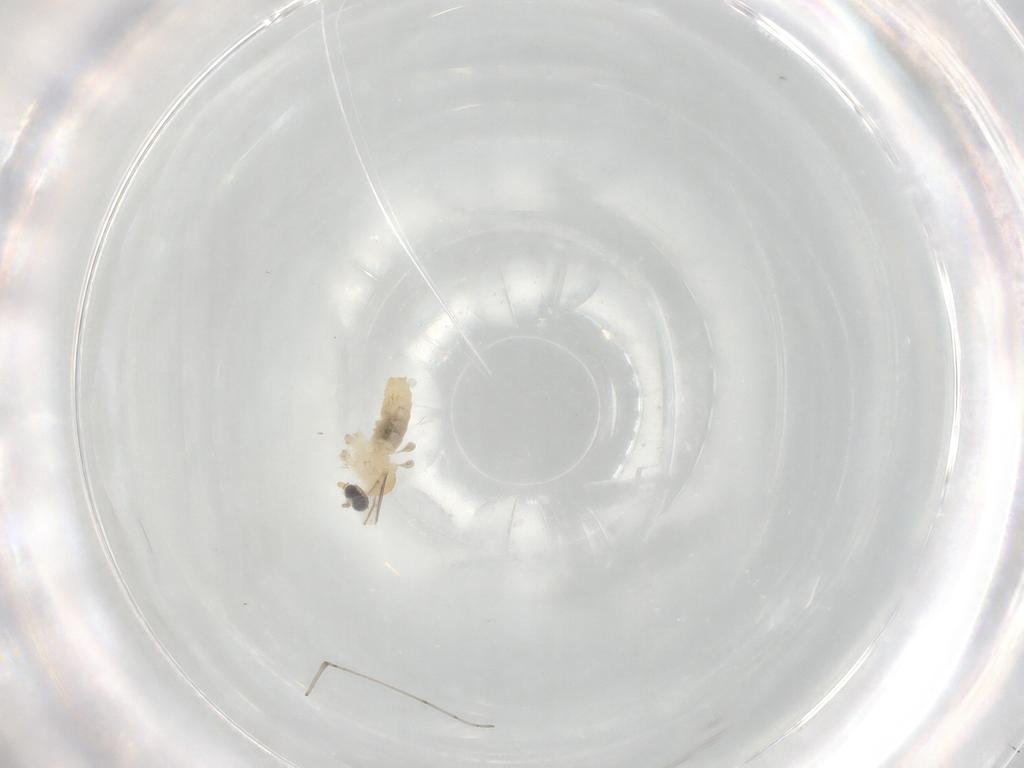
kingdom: Animalia
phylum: Arthropoda
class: Insecta
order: Diptera
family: Cecidomyiidae
